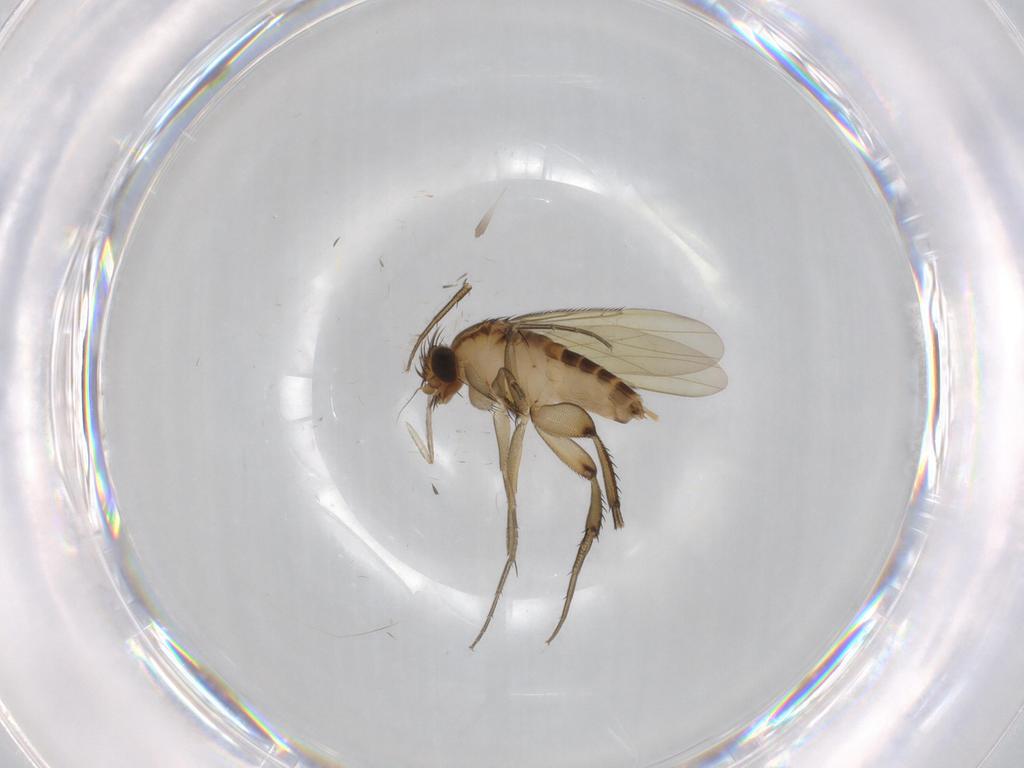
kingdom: Animalia
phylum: Arthropoda
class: Insecta
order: Diptera
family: Phoridae
